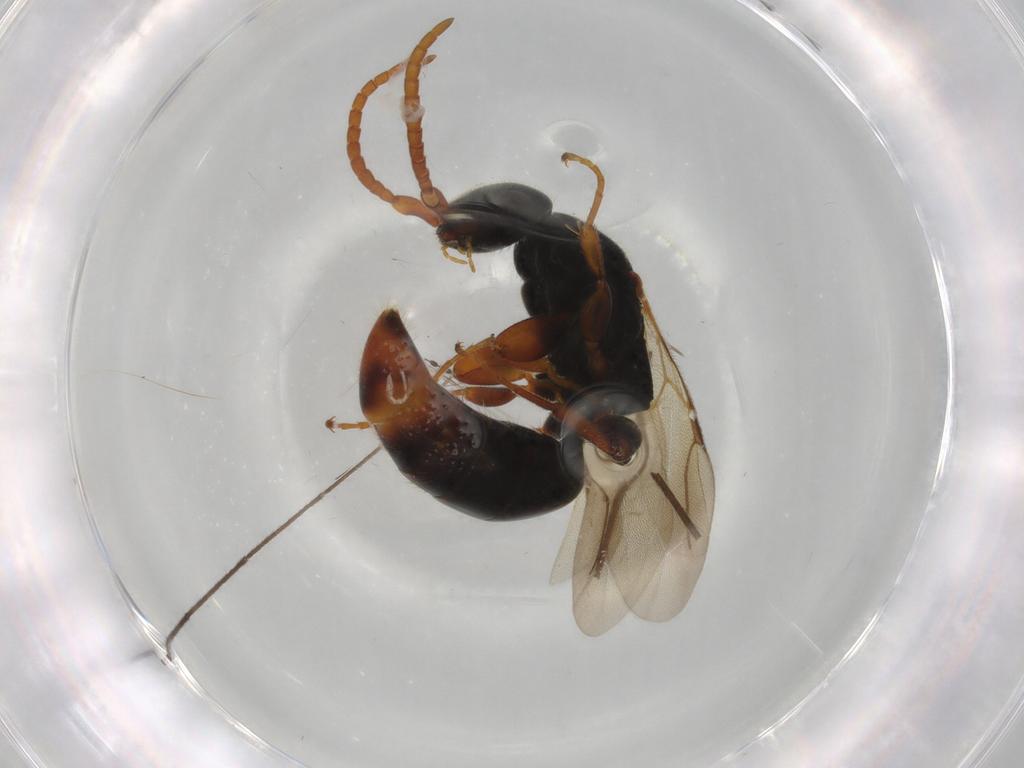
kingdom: Animalia
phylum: Arthropoda
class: Insecta
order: Hymenoptera
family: Bethylidae
